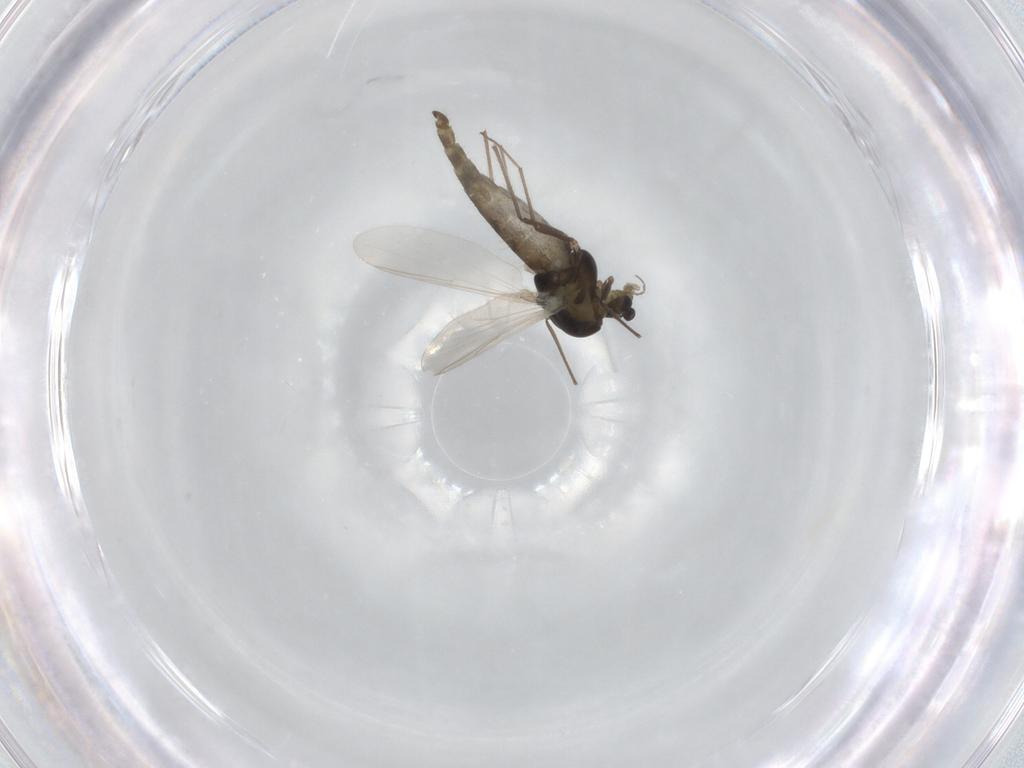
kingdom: Animalia
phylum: Arthropoda
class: Insecta
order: Diptera
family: Chironomidae
